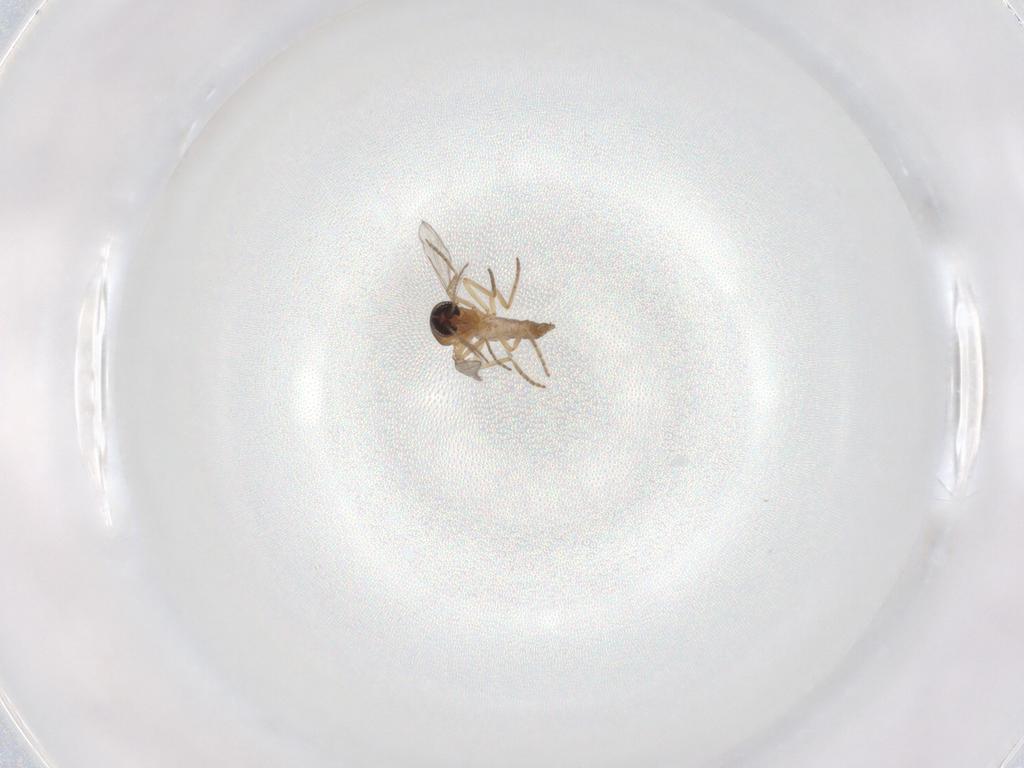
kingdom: Animalia
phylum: Arthropoda
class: Insecta
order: Diptera
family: Ceratopogonidae
